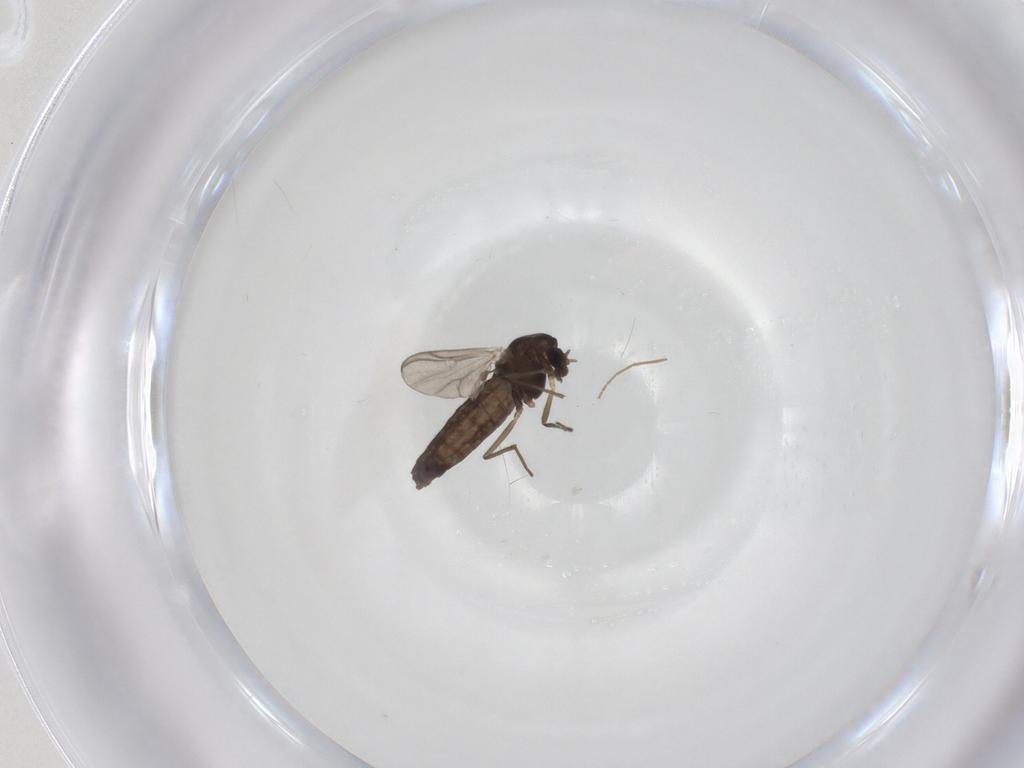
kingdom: Animalia
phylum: Arthropoda
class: Insecta
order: Diptera
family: Chironomidae
